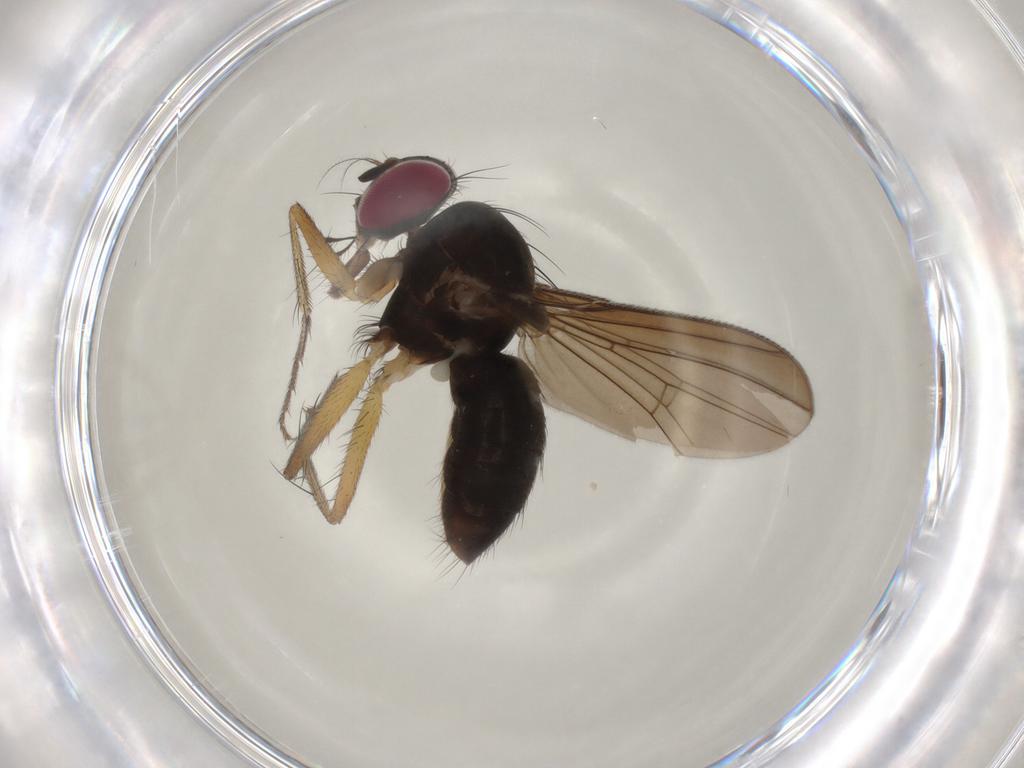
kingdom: Animalia
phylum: Arthropoda
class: Insecta
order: Diptera
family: Anthomyiidae
